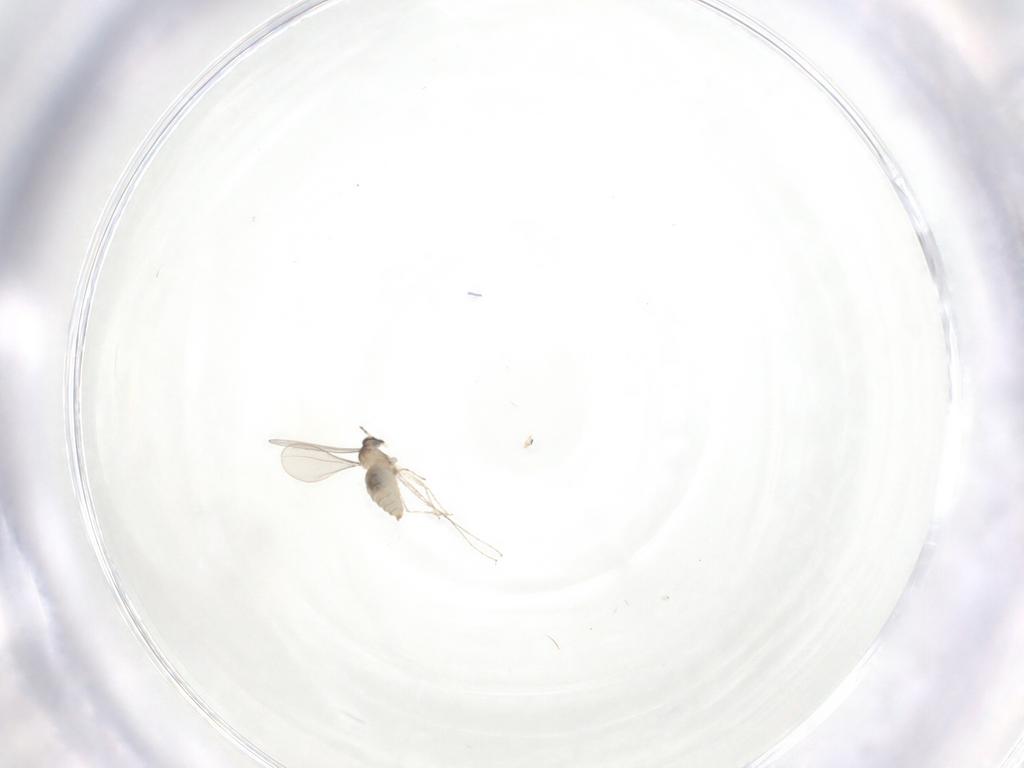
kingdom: Animalia
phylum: Arthropoda
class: Insecta
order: Diptera
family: Cecidomyiidae
